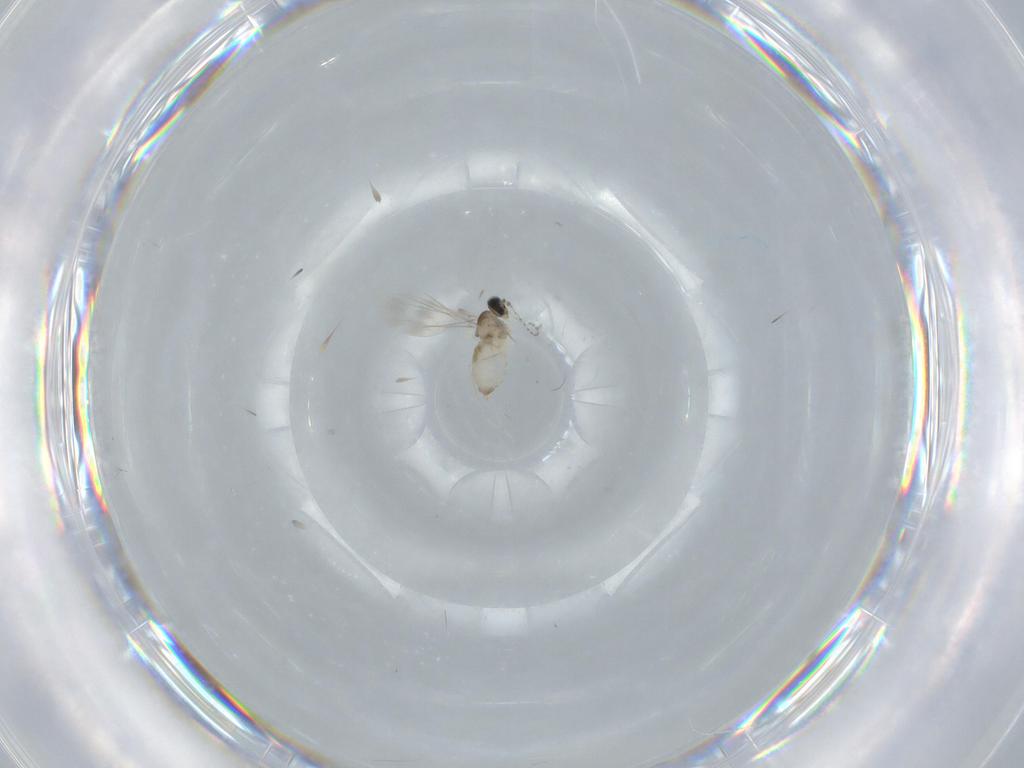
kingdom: Animalia
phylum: Arthropoda
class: Insecta
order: Diptera
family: Cecidomyiidae
